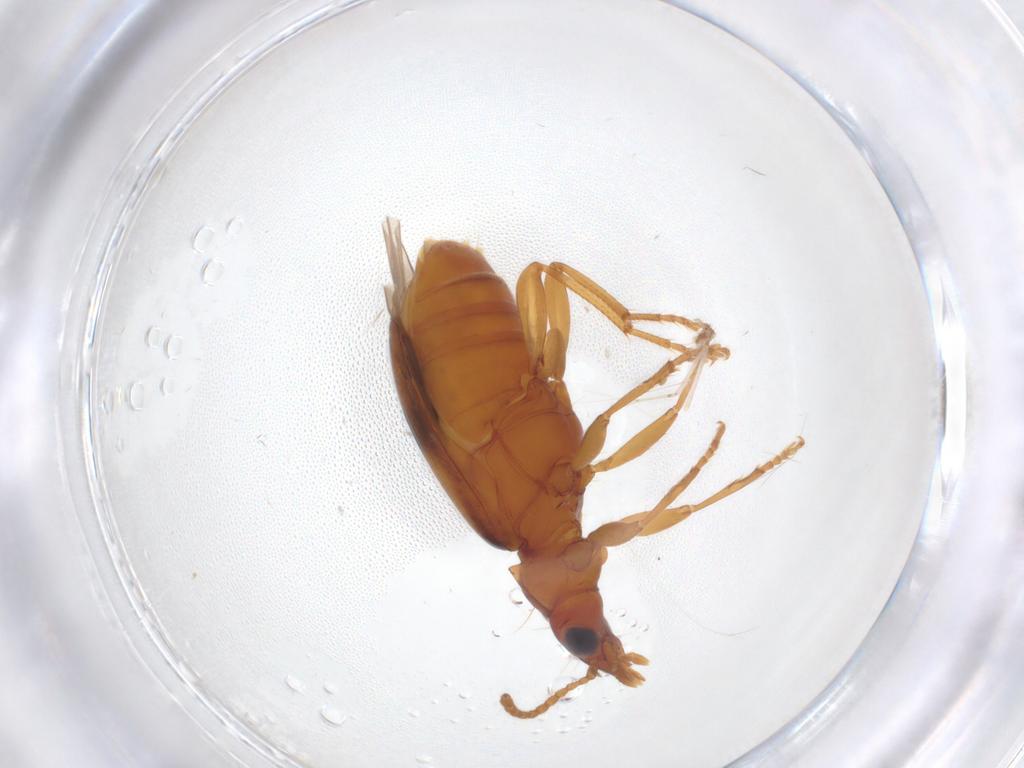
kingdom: Animalia
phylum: Arthropoda
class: Insecta
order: Coleoptera
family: Carabidae
